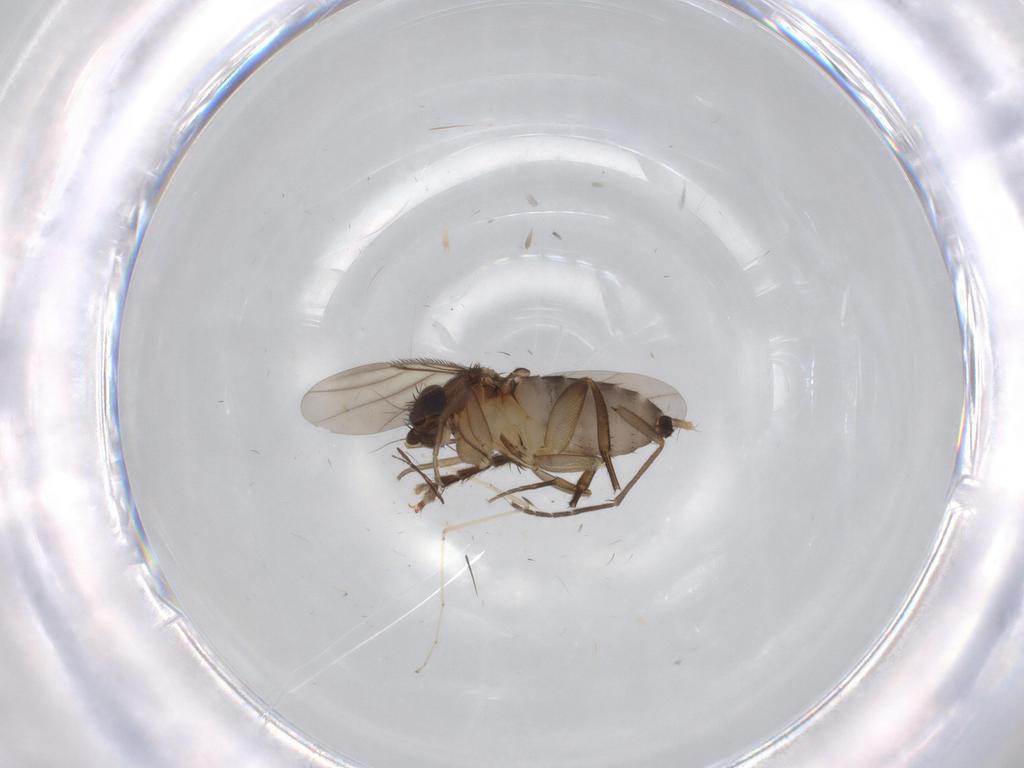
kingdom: Animalia
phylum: Arthropoda
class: Insecta
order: Diptera
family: Phoridae
